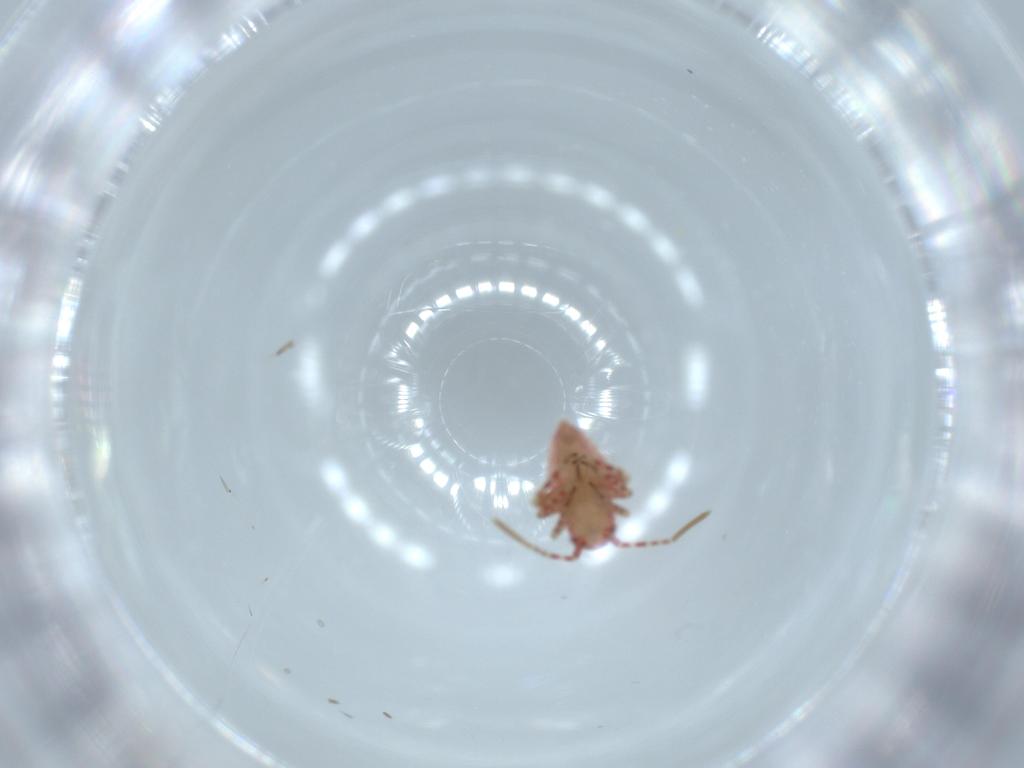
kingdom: Animalia
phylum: Arthropoda
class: Insecta
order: Hemiptera
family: Miridae
